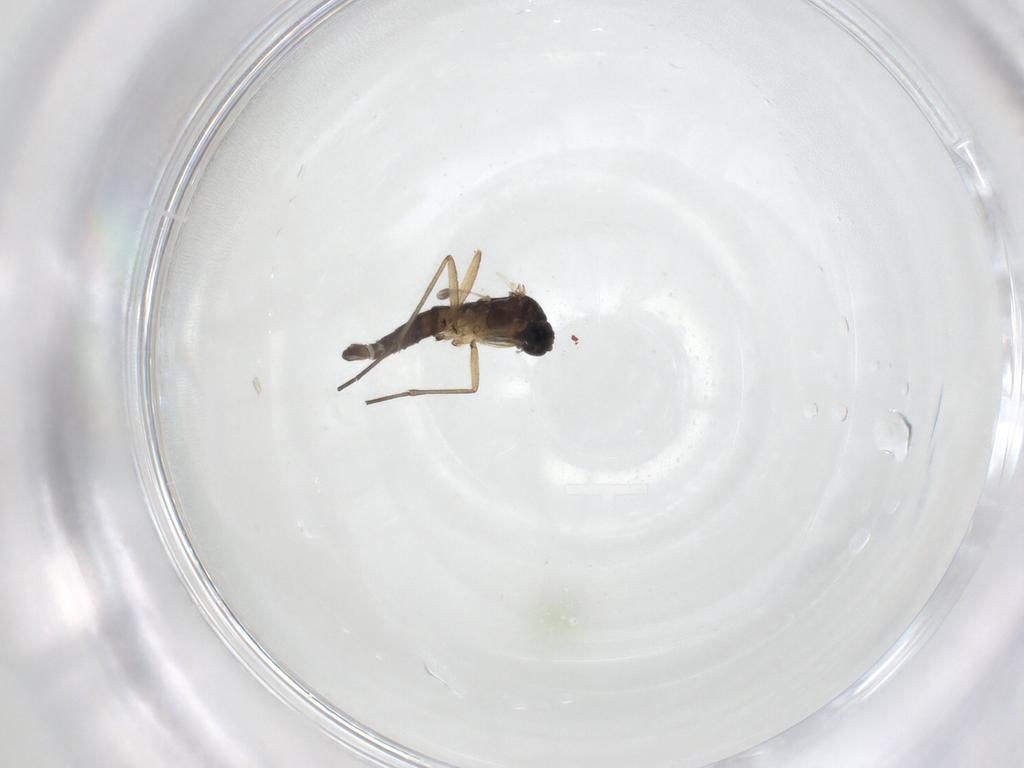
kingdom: Animalia
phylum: Arthropoda
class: Insecta
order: Diptera
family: Sciaridae
